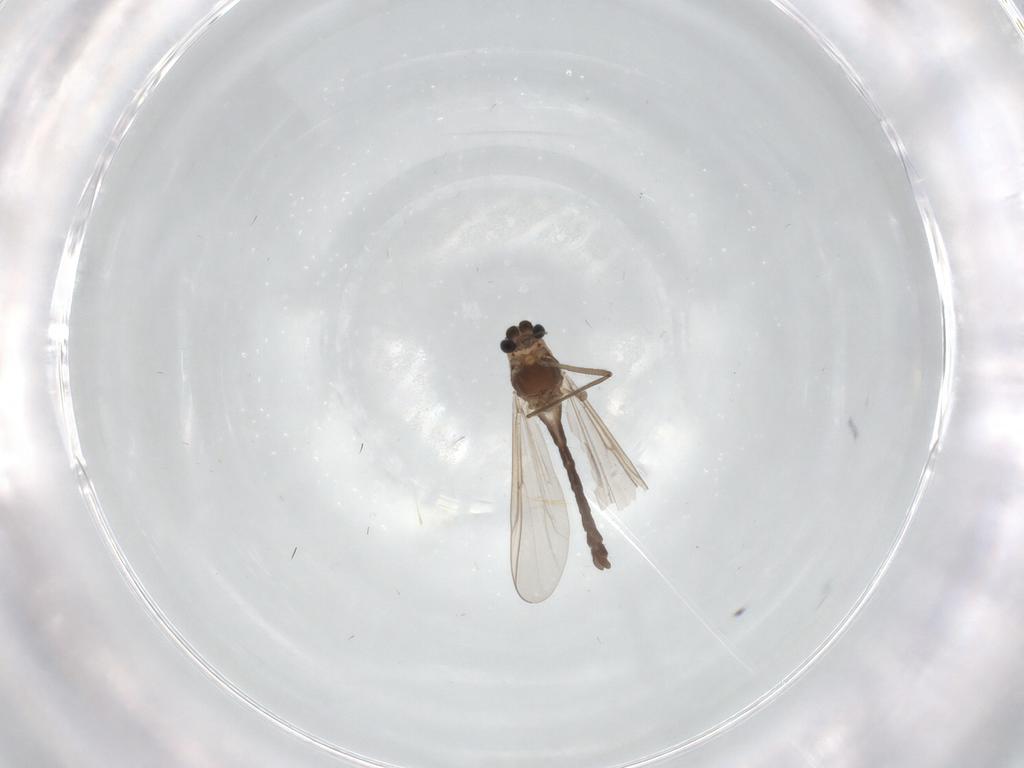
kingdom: Animalia
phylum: Arthropoda
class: Insecta
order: Diptera
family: Chironomidae
